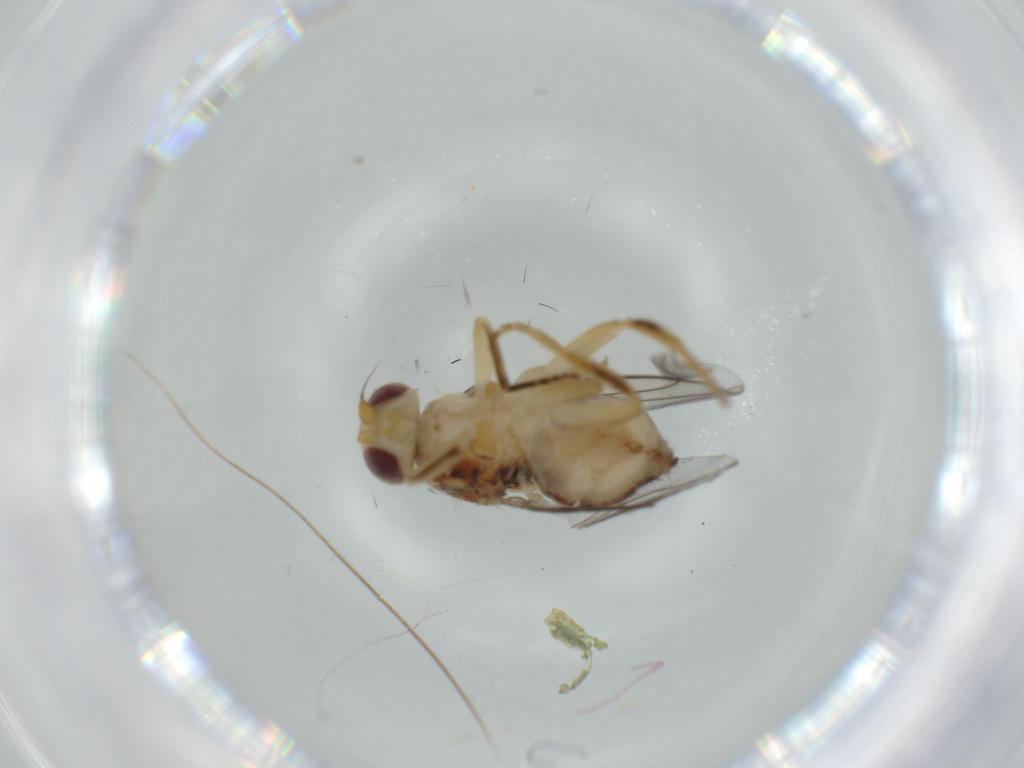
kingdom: Animalia
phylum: Arthropoda
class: Insecta
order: Diptera
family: Chloropidae
